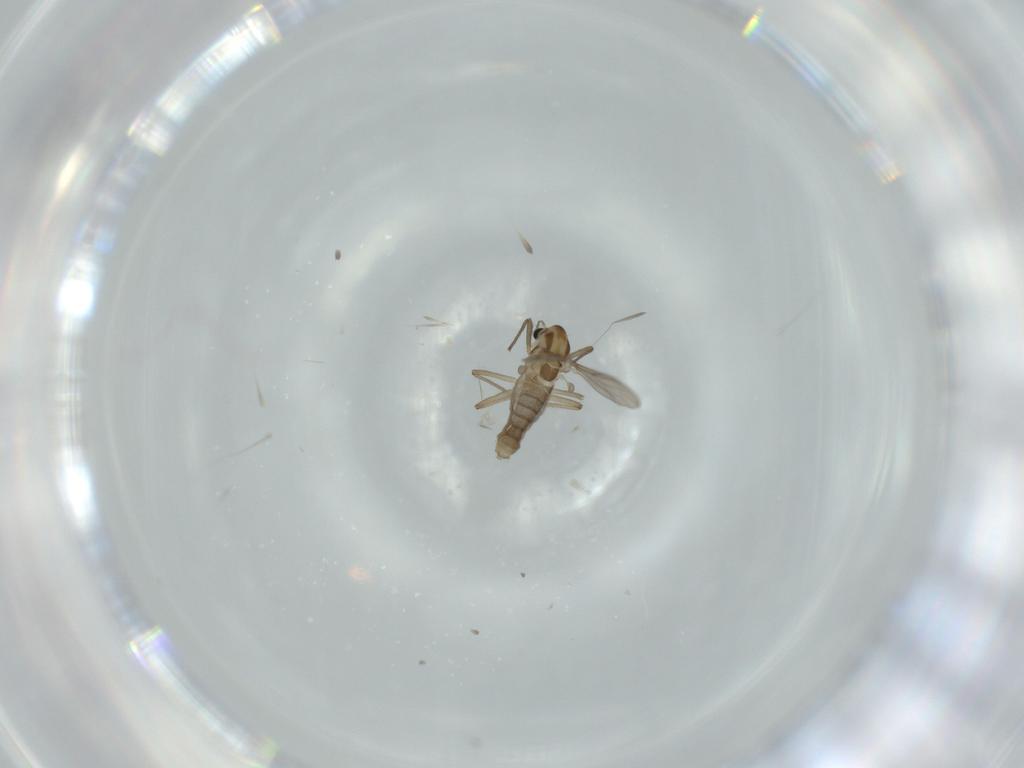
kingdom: Animalia
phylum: Arthropoda
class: Insecta
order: Diptera
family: Chironomidae
